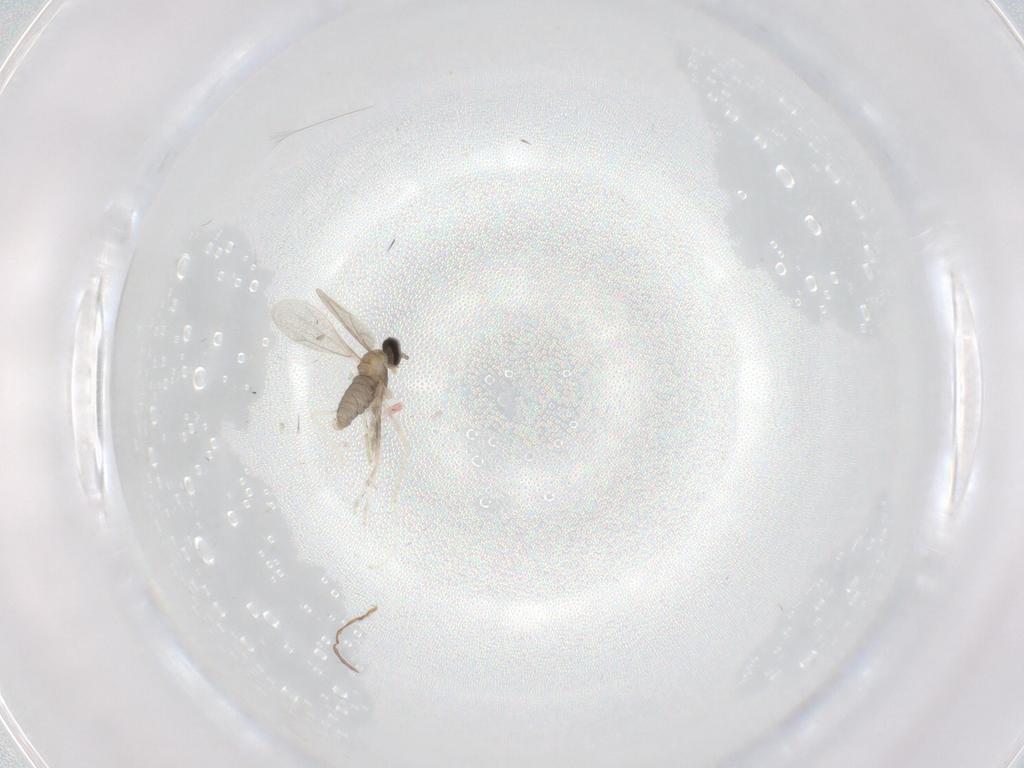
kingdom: Animalia
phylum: Arthropoda
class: Insecta
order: Diptera
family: Cecidomyiidae
